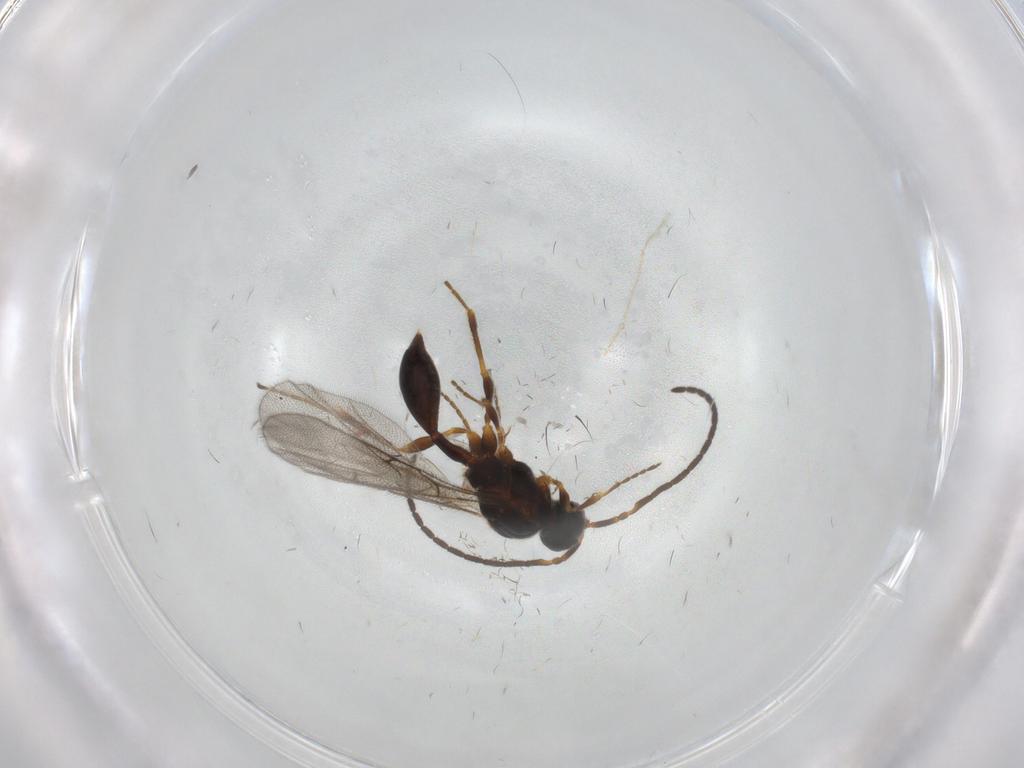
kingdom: Animalia
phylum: Arthropoda
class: Insecta
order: Hymenoptera
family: Diapriidae
